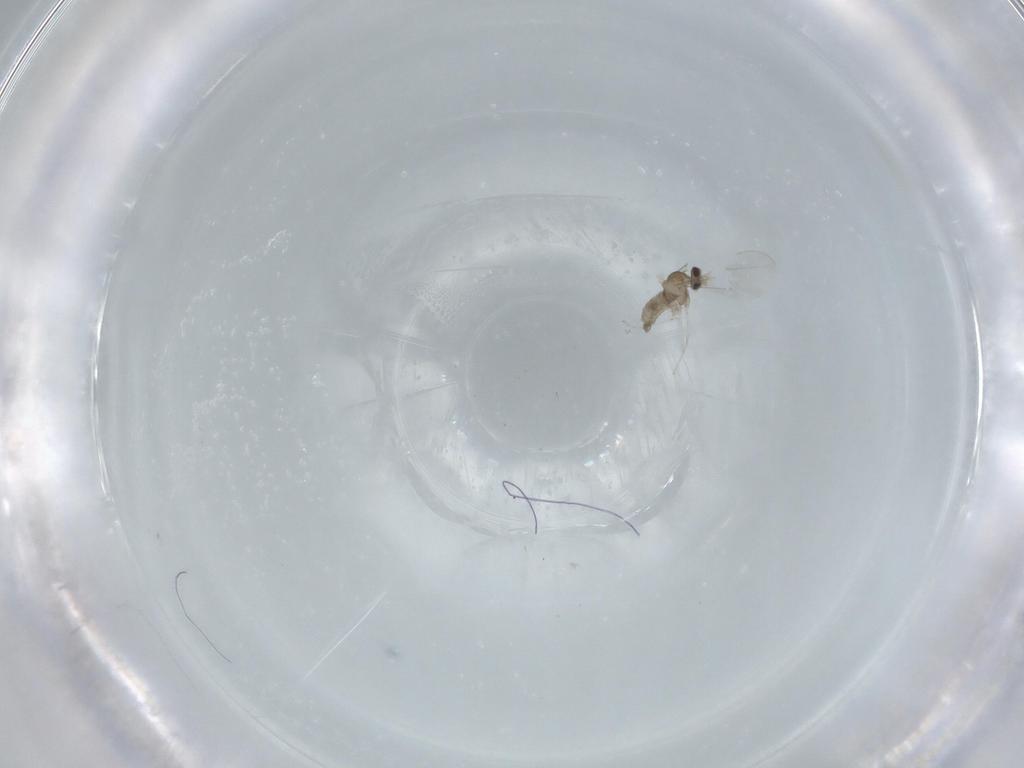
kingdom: Animalia
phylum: Arthropoda
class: Insecta
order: Diptera
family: Cecidomyiidae
